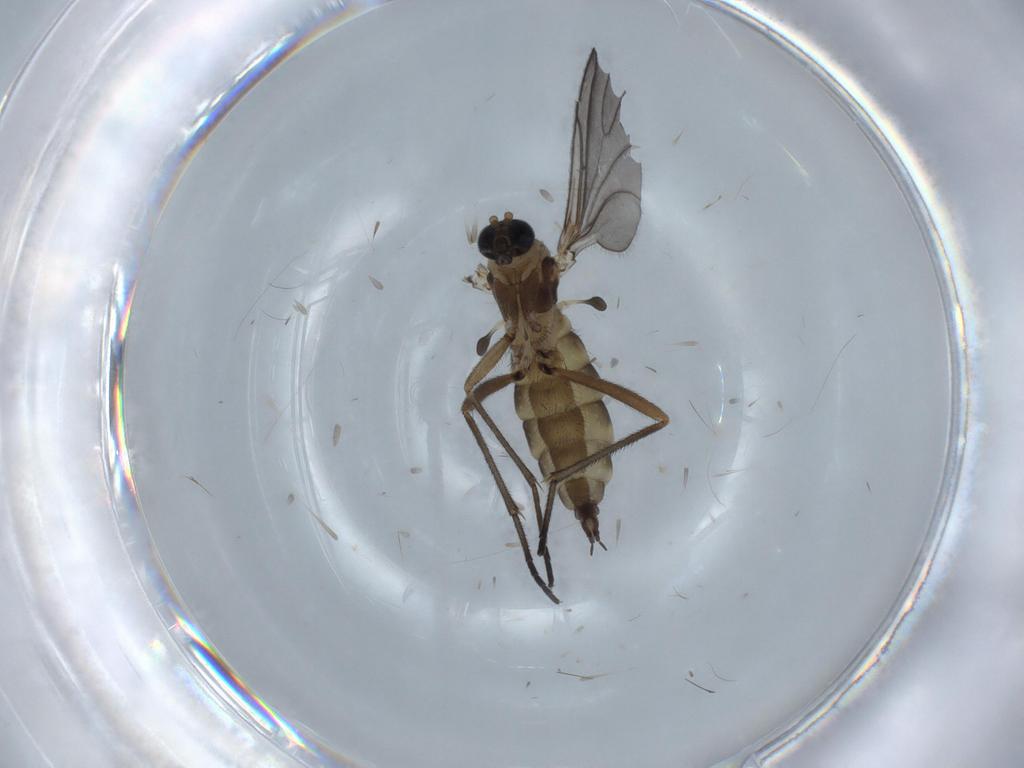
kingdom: Animalia
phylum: Arthropoda
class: Insecta
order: Diptera
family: Sciaridae
